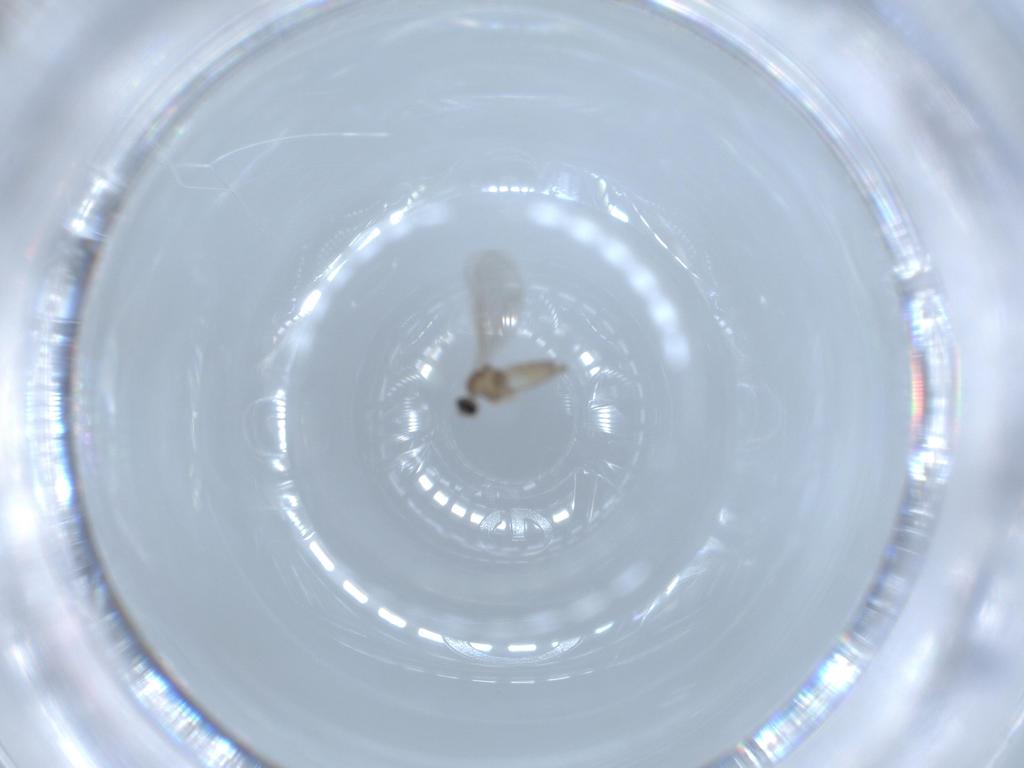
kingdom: Animalia
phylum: Arthropoda
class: Insecta
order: Diptera
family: Cecidomyiidae
